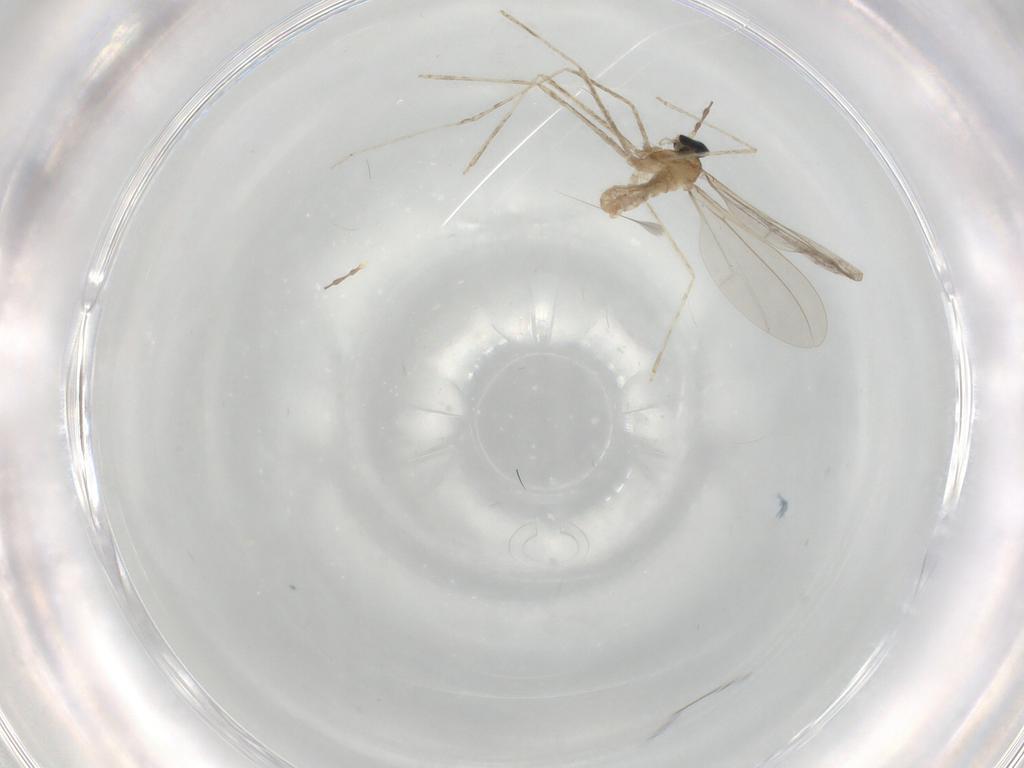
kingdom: Animalia
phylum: Arthropoda
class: Insecta
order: Diptera
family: Cecidomyiidae
